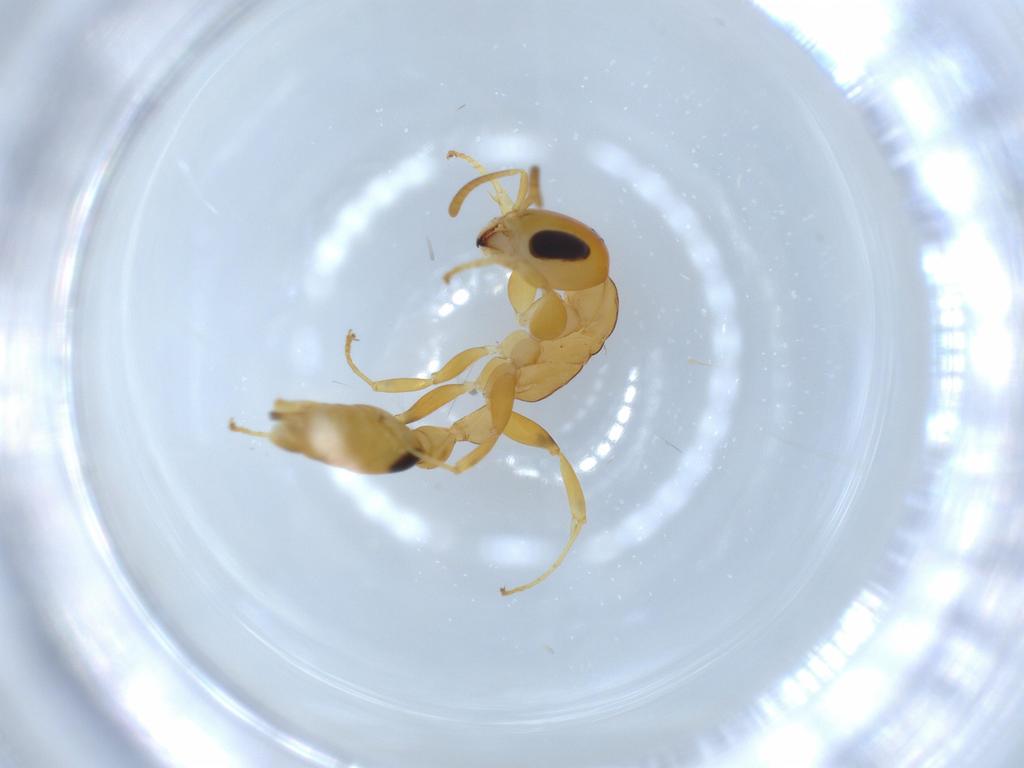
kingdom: Animalia
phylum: Arthropoda
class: Insecta
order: Hymenoptera
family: Formicidae
